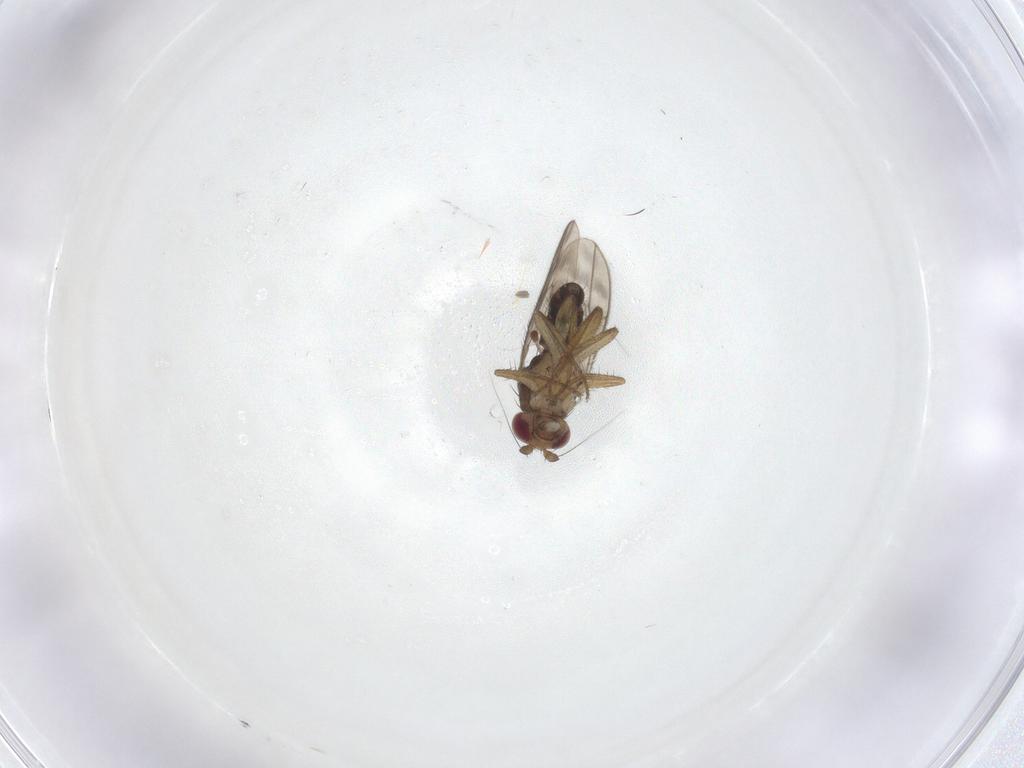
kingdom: Animalia
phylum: Arthropoda
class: Insecta
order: Diptera
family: Sphaeroceridae
